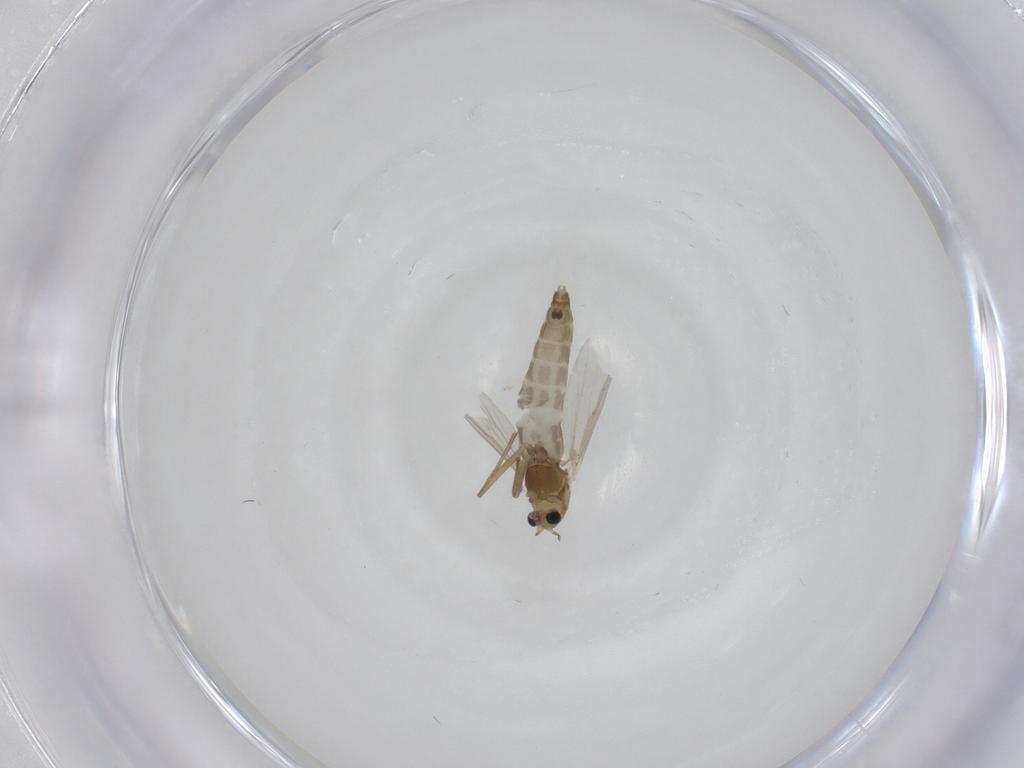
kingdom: Animalia
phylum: Arthropoda
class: Insecta
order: Diptera
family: Chironomidae
